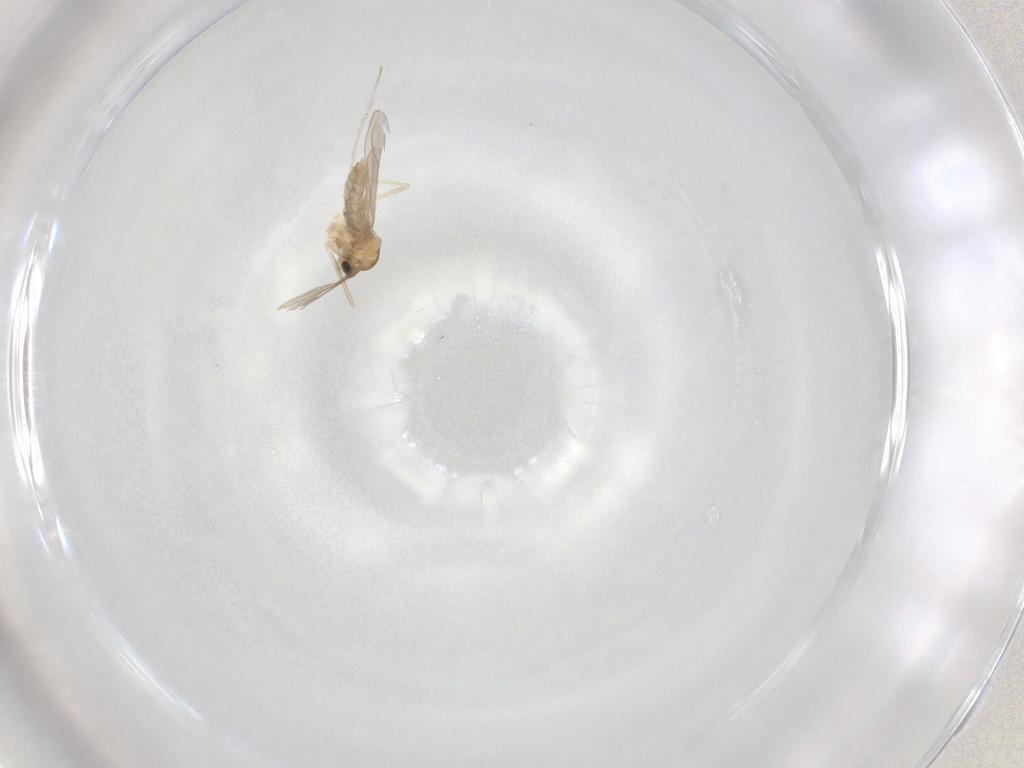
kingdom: Animalia
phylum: Arthropoda
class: Insecta
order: Diptera
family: Cecidomyiidae
